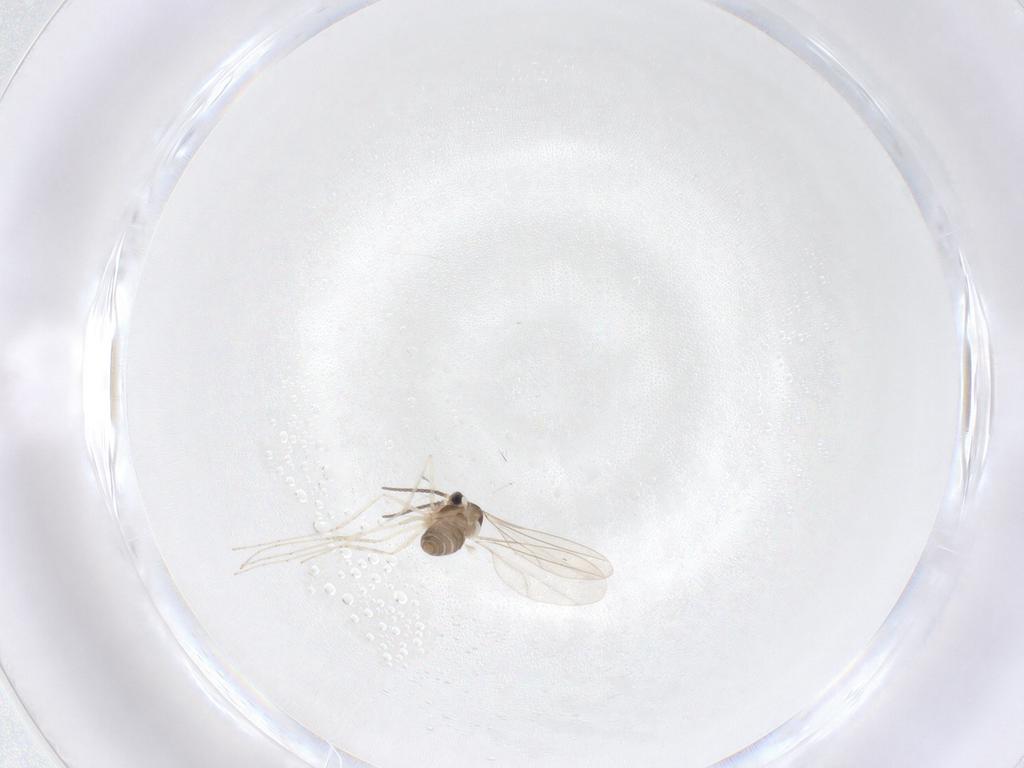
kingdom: Animalia
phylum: Arthropoda
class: Insecta
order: Diptera
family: Cecidomyiidae
